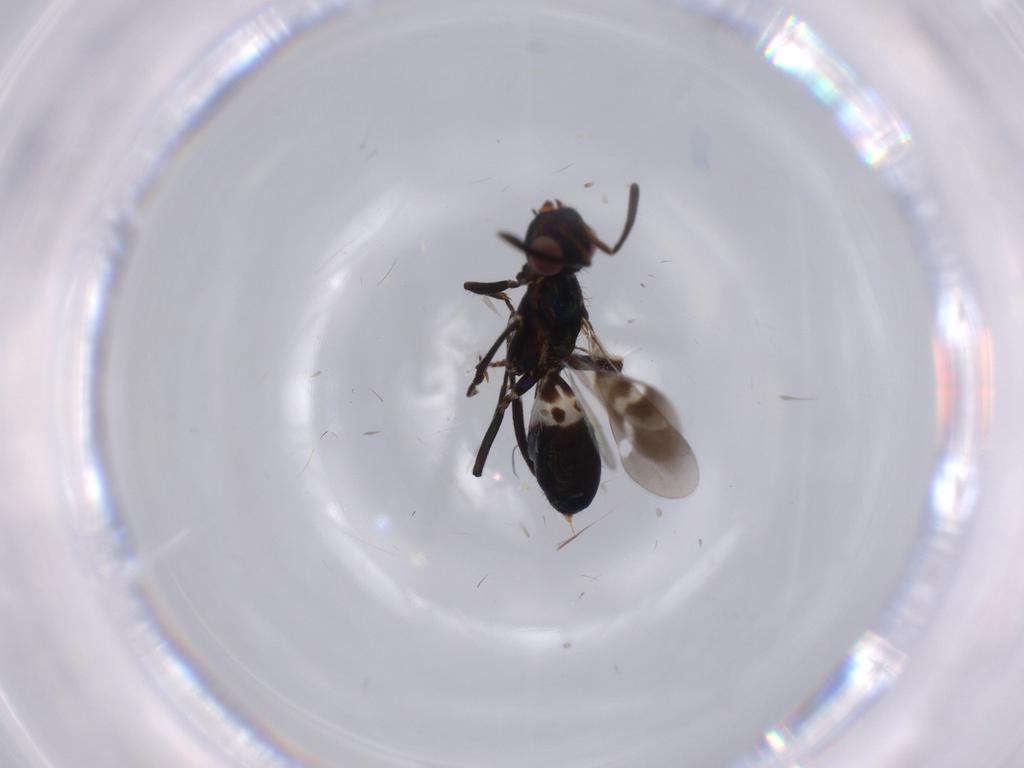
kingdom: Animalia
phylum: Arthropoda
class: Insecta
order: Hymenoptera
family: Eupelmidae
